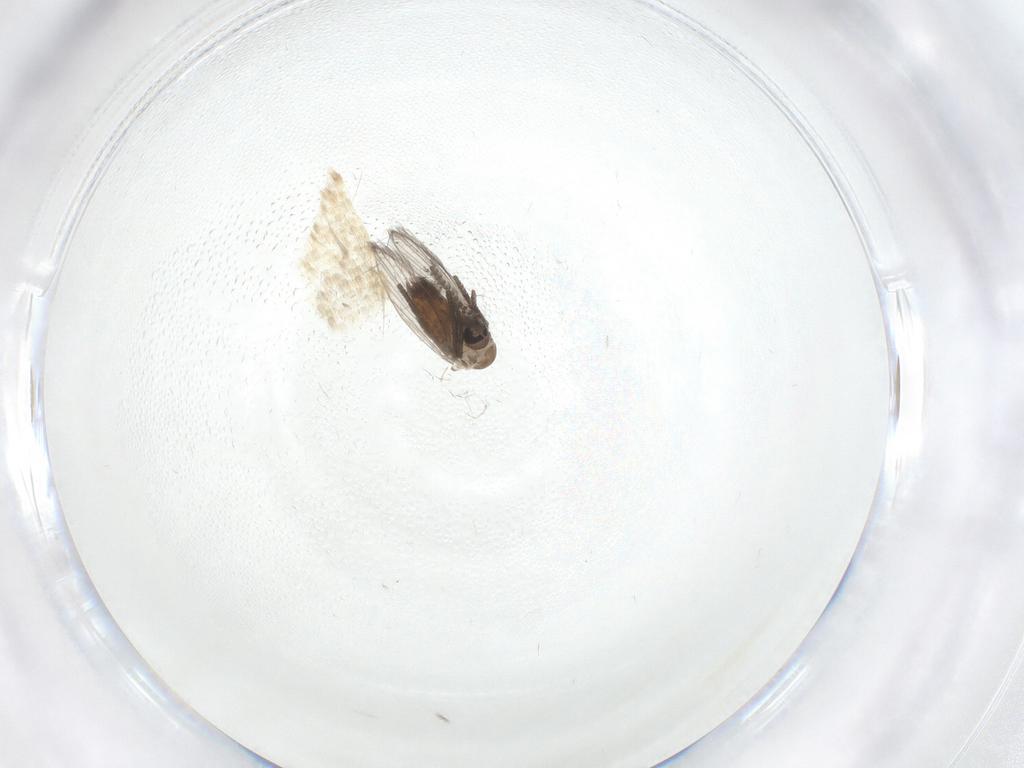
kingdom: Animalia
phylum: Arthropoda
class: Insecta
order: Diptera
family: Psychodidae
